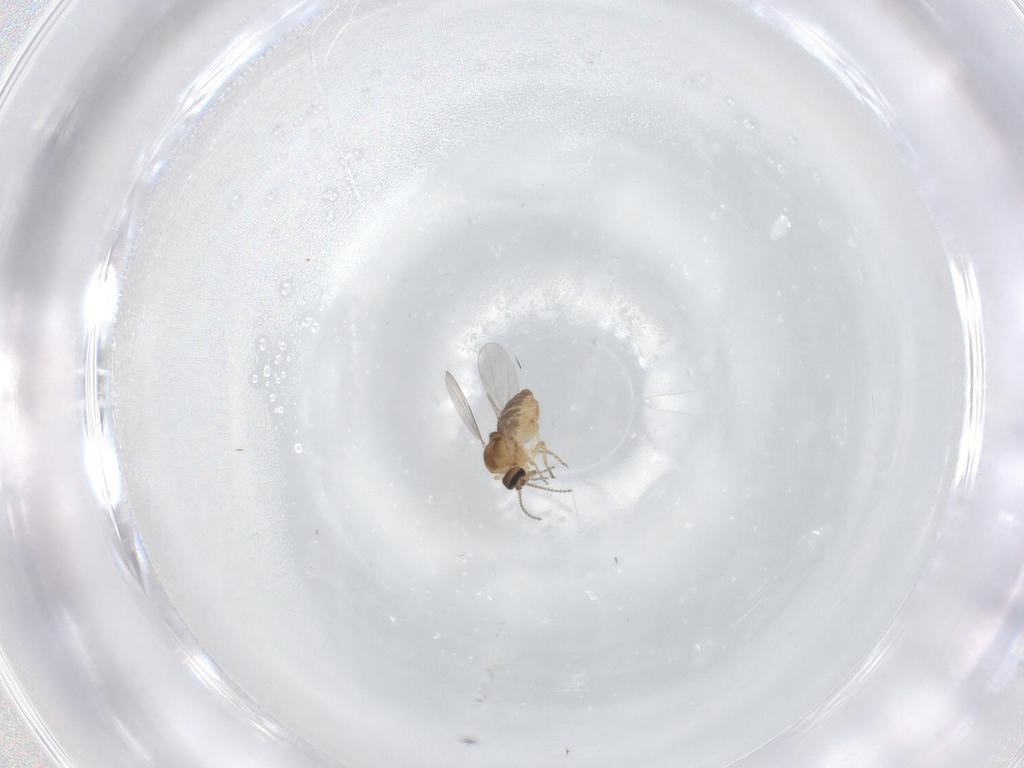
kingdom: Animalia
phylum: Arthropoda
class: Insecta
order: Diptera
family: Ceratopogonidae
